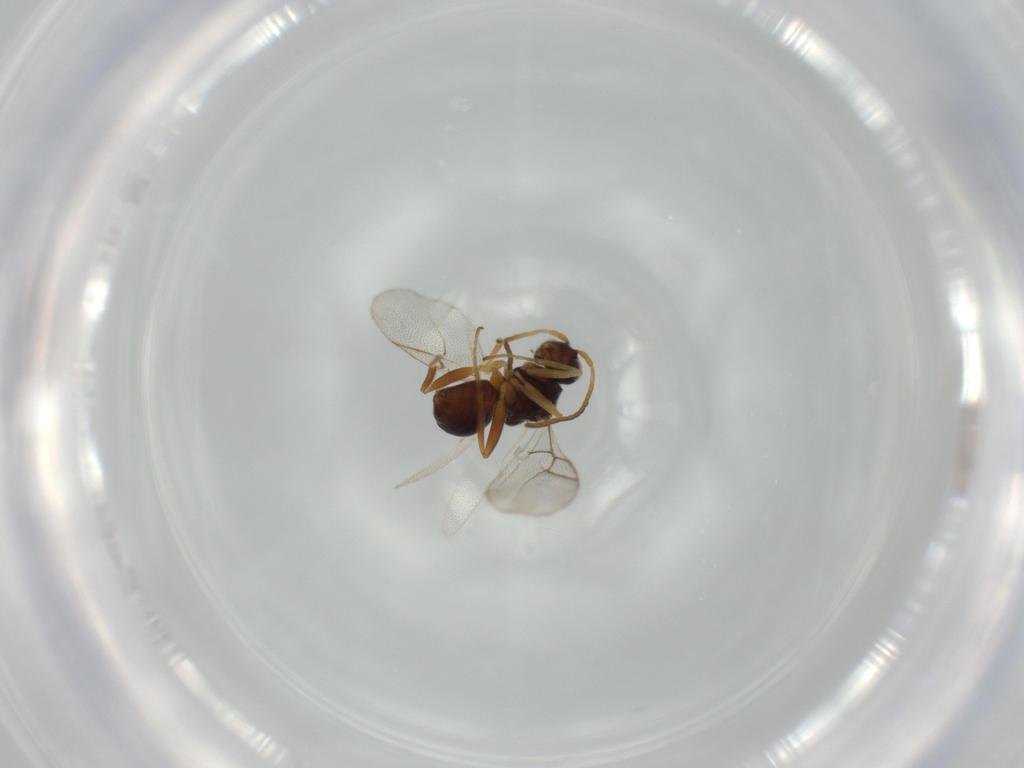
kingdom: Animalia
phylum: Arthropoda
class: Insecta
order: Hymenoptera
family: Figitidae
